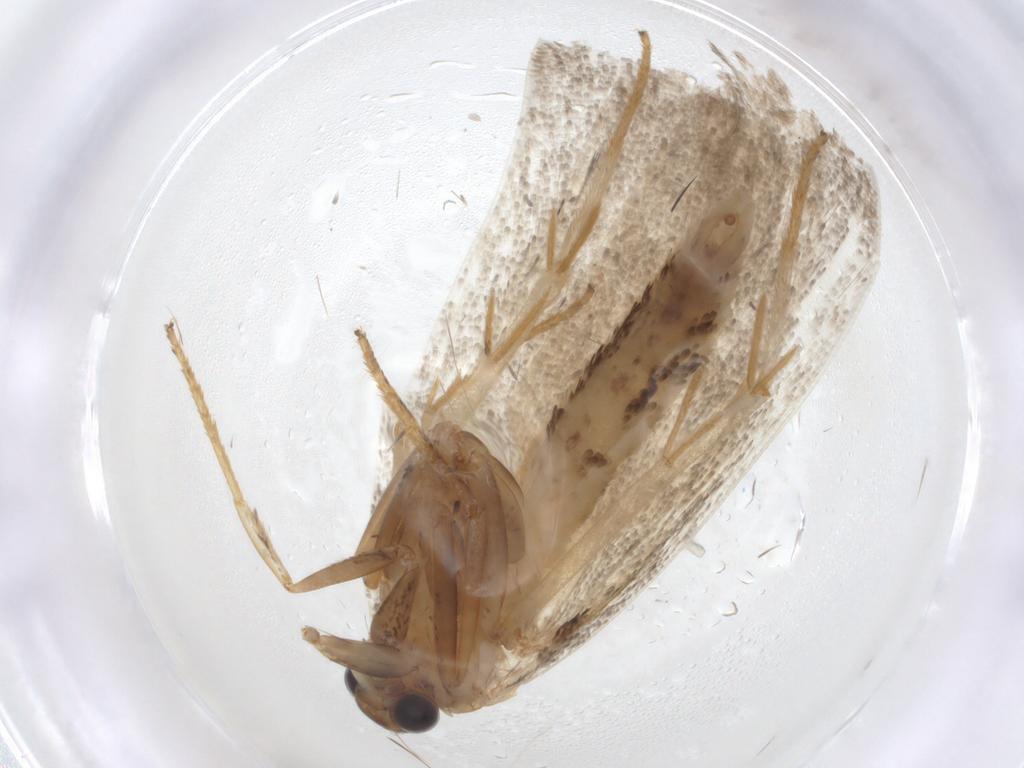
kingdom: Animalia
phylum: Arthropoda
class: Insecta
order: Lepidoptera
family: Depressariidae
